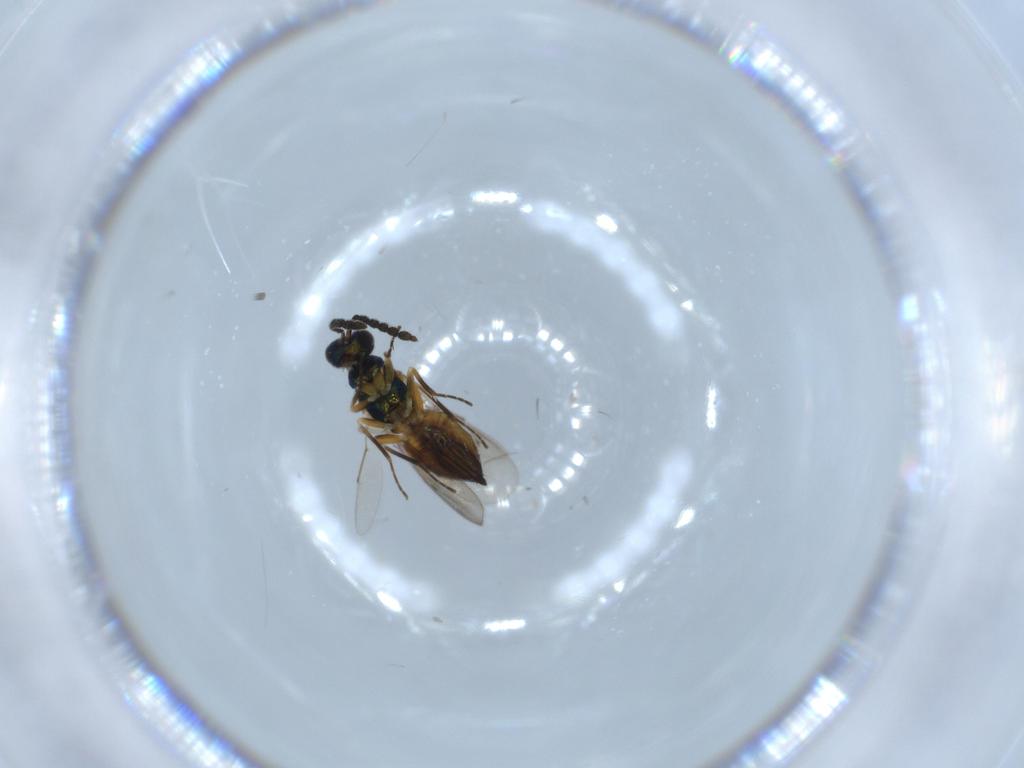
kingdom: Animalia
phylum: Arthropoda
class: Insecta
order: Hymenoptera
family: Eulophidae
